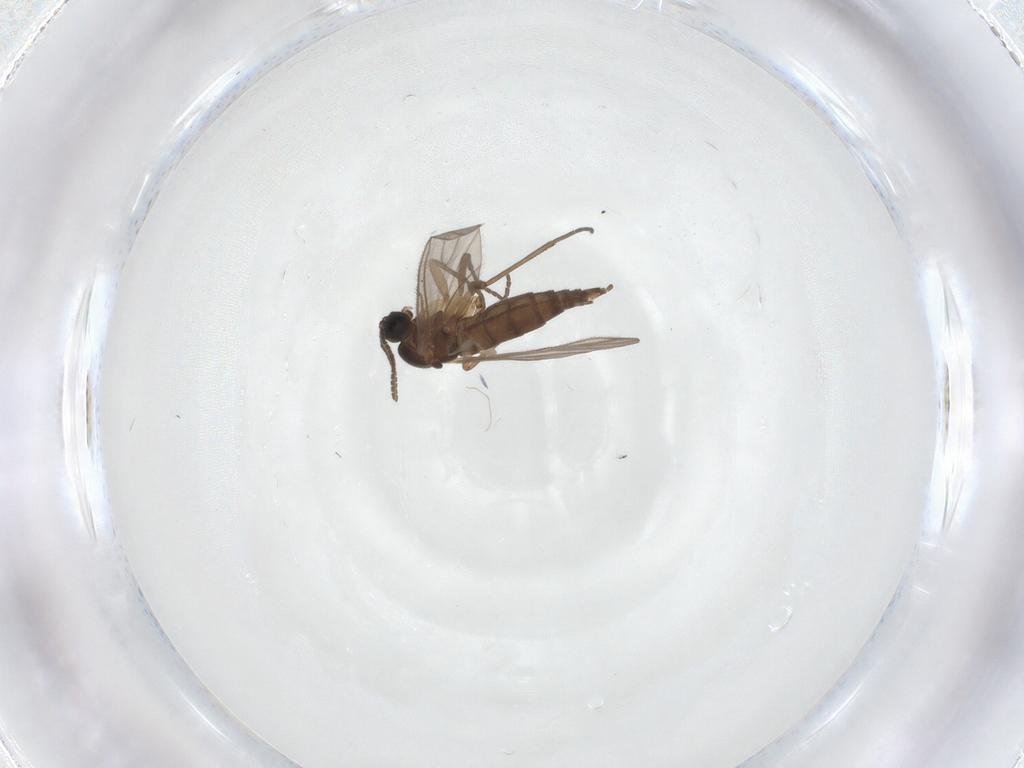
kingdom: Animalia
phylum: Arthropoda
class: Insecta
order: Diptera
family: Sciaridae
